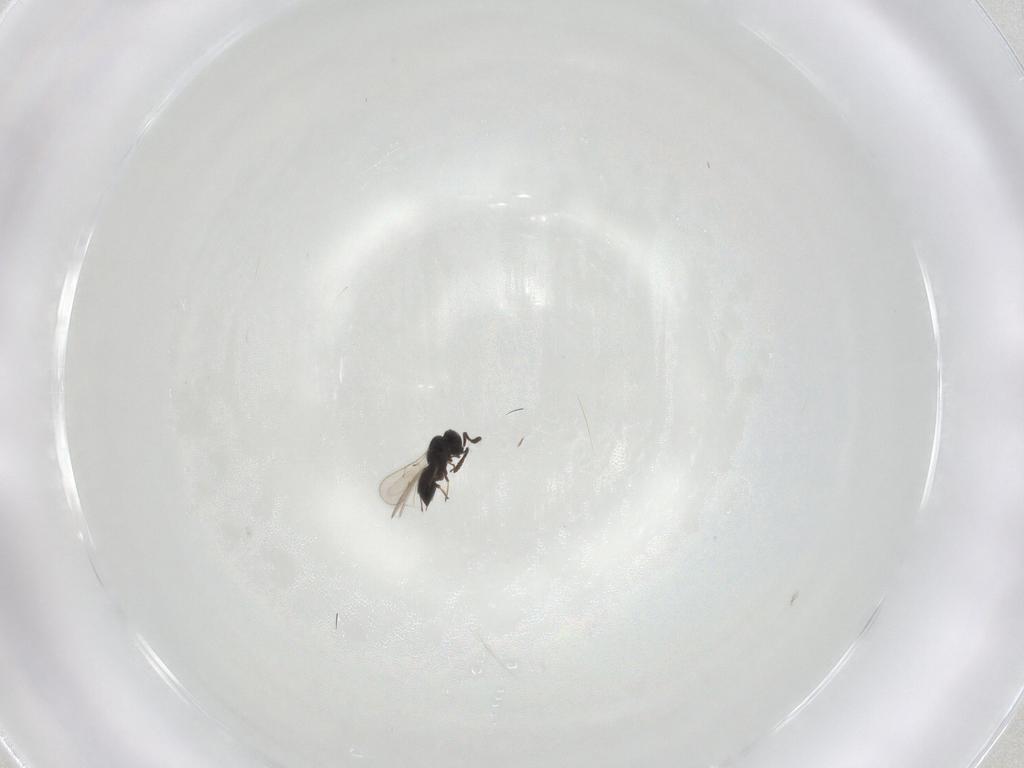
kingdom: Animalia
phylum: Arthropoda
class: Insecta
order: Hymenoptera
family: Scelionidae
